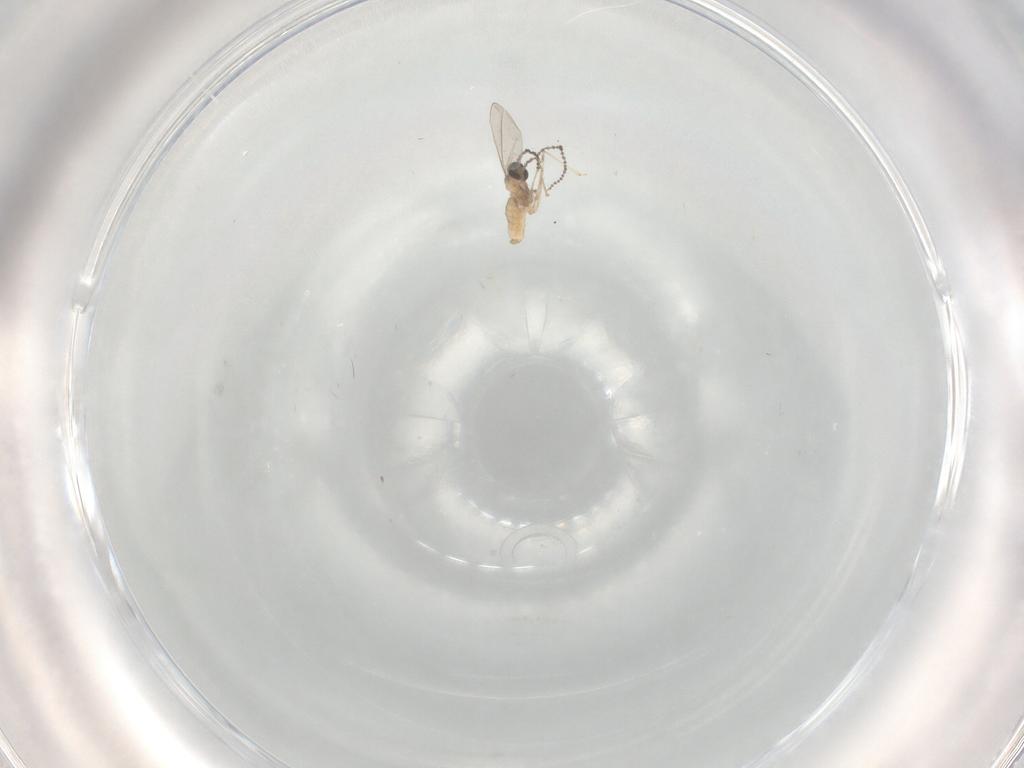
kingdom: Animalia
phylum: Arthropoda
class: Insecta
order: Diptera
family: Cecidomyiidae
